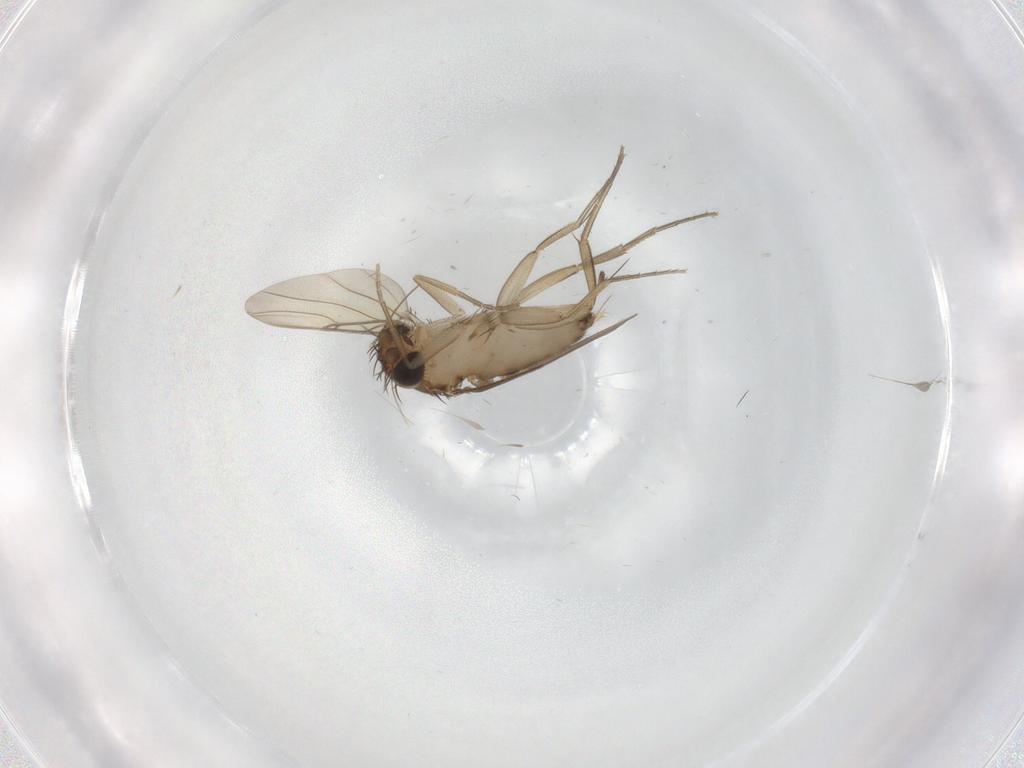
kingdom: Animalia
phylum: Arthropoda
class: Insecta
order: Diptera
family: Phoridae
